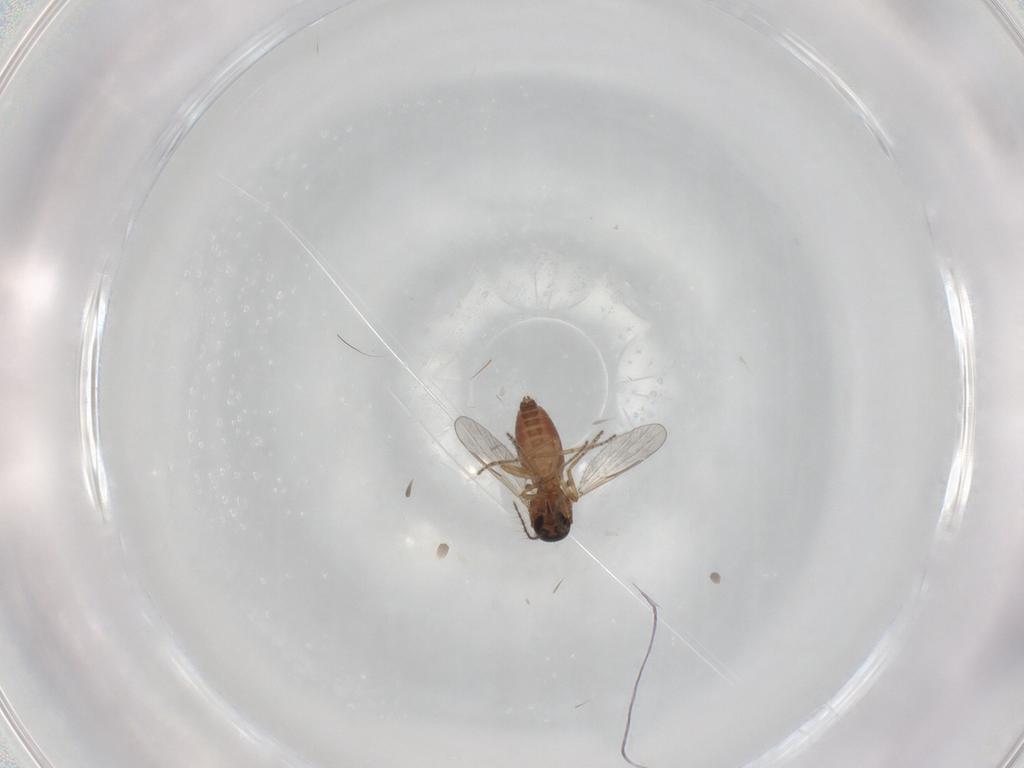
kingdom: Animalia
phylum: Arthropoda
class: Insecta
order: Diptera
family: Ceratopogonidae
